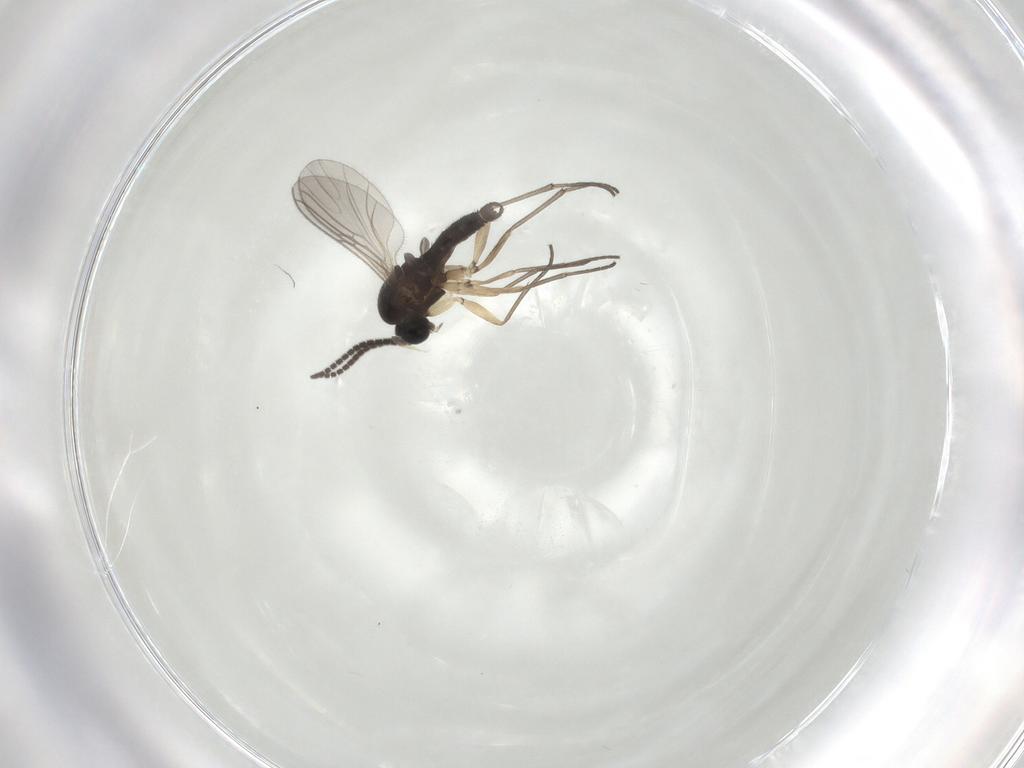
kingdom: Animalia
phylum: Arthropoda
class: Insecta
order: Diptera
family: Sciaridae
